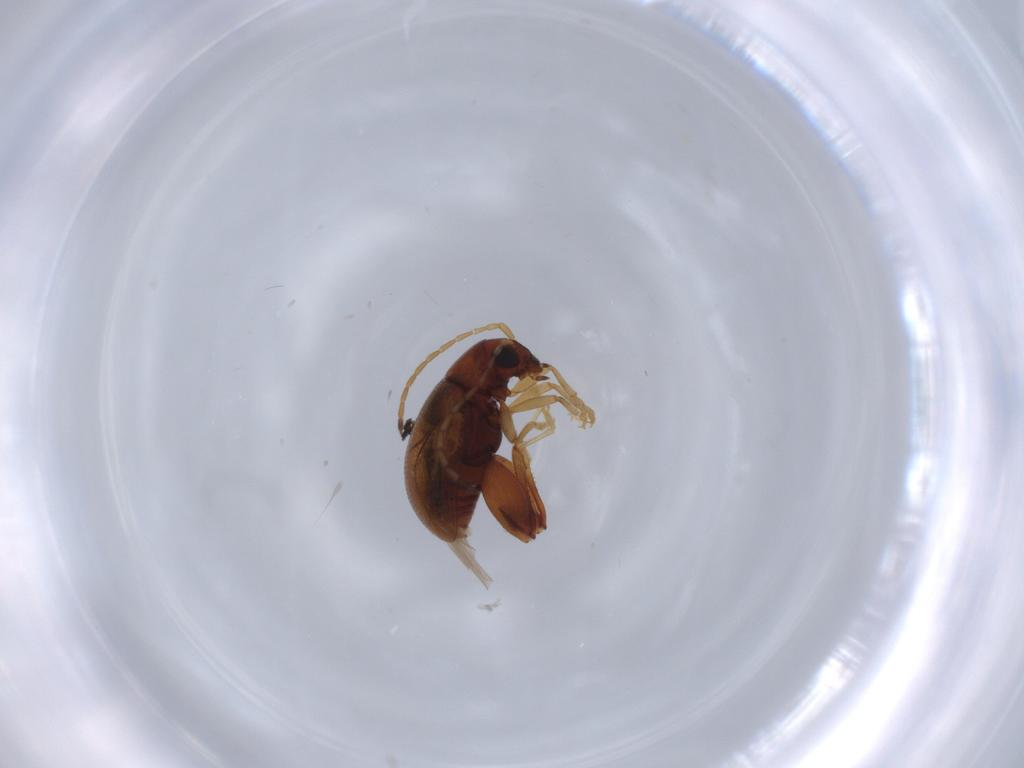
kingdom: Animalia
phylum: Arthropoda
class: Insecta
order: Coleoptera
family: Chrysomelidae
